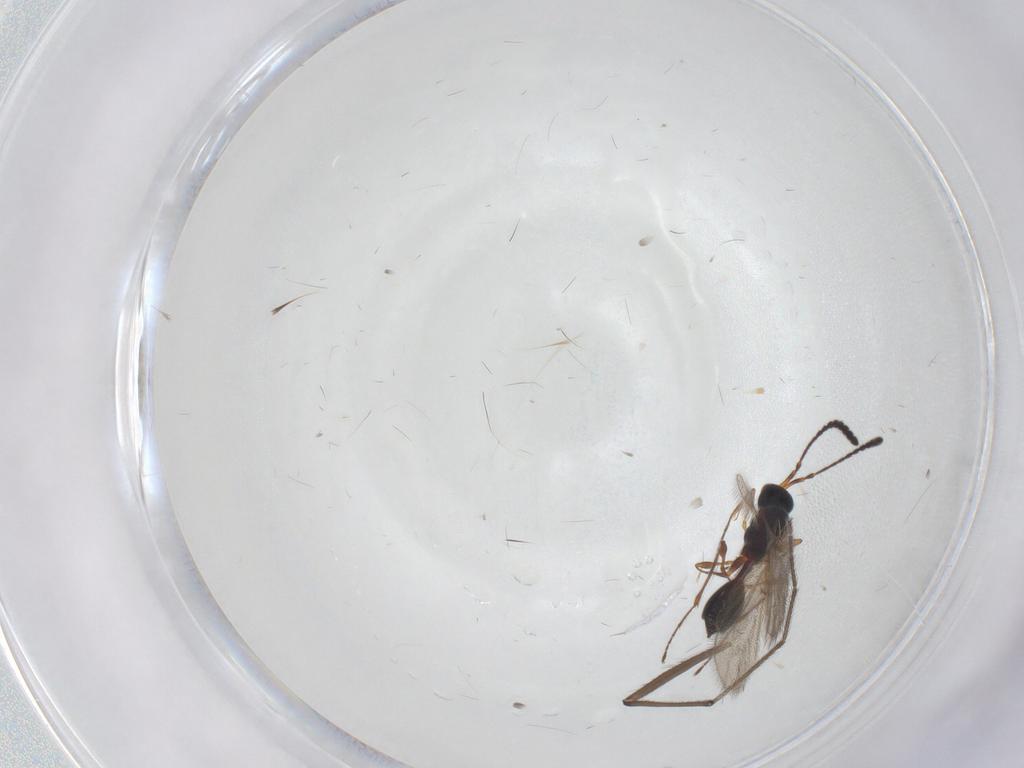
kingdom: Animalia
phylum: Arthropoda
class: Insecta
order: Hymenoptera
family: Diapriidae
